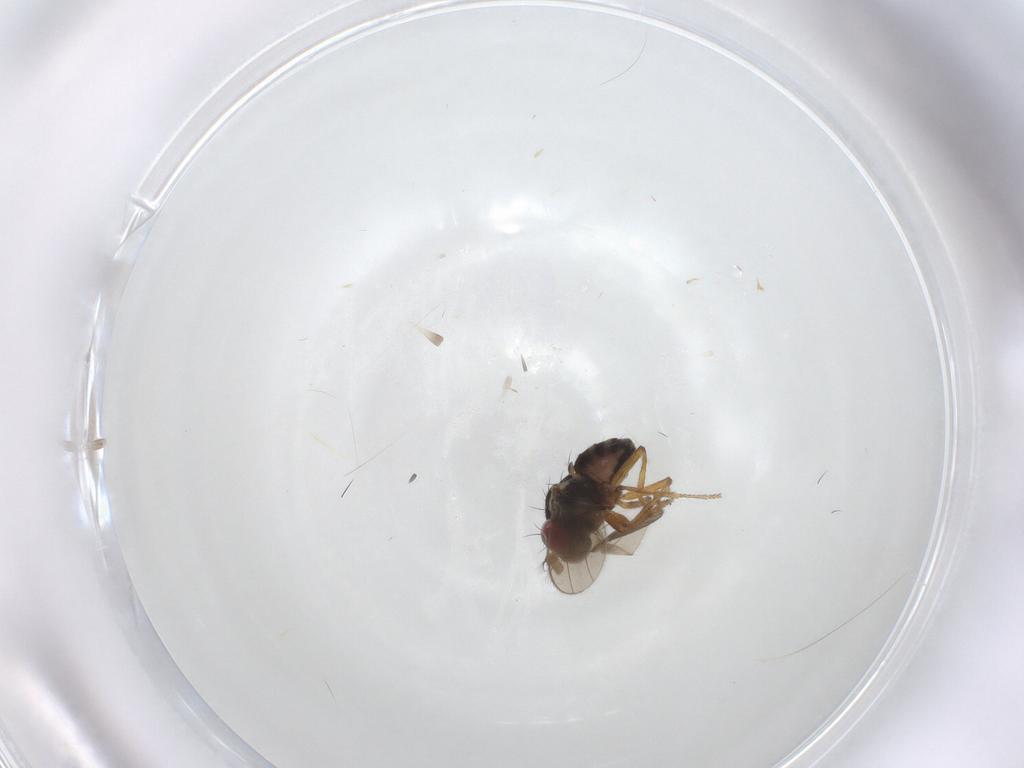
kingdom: Animalia
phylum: Arthropoda
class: Insecta
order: Diptera
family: Ephydridae
